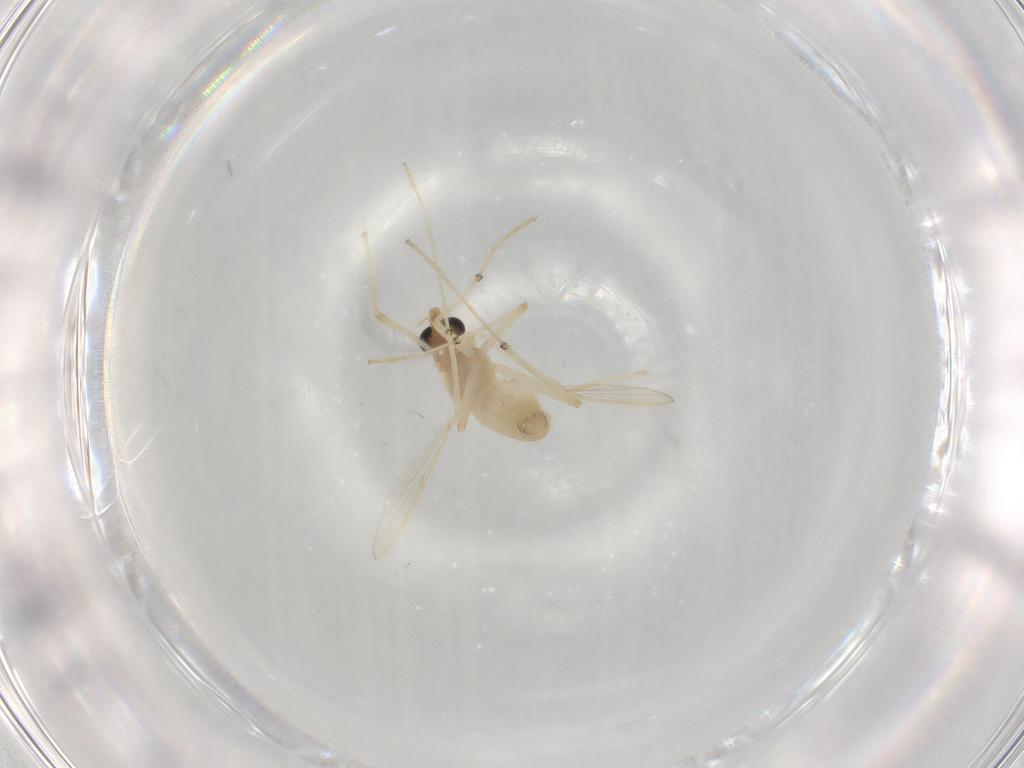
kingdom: Animalia
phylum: Arthropoda
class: Insecta
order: Diptera
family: Chironomidae
